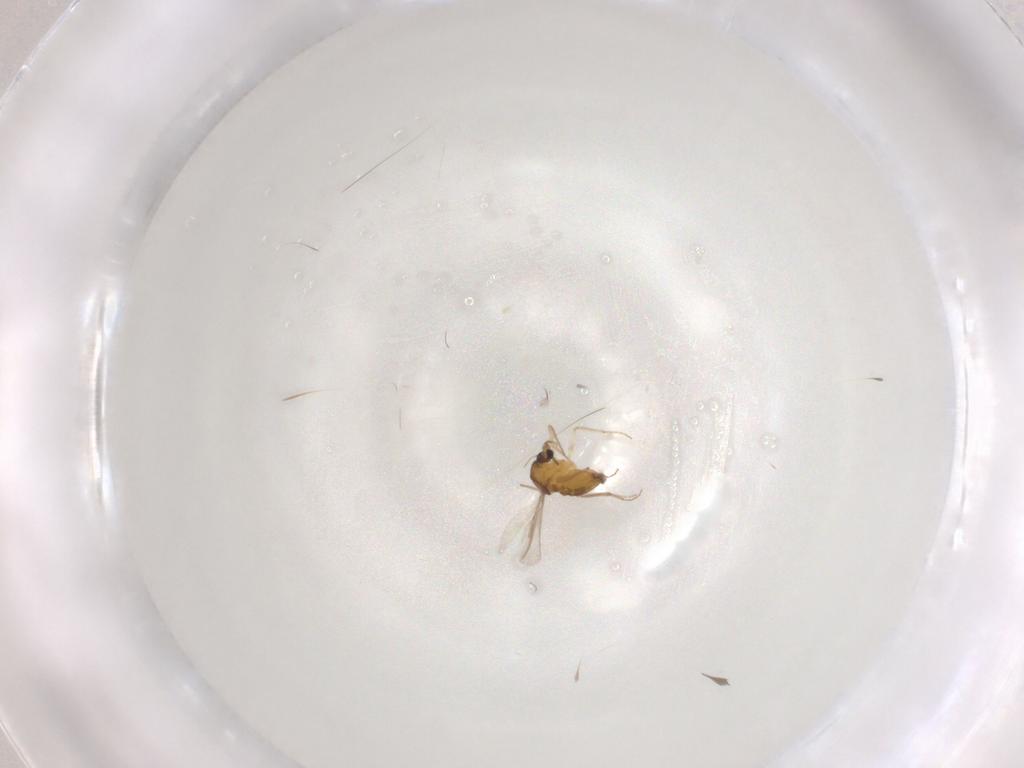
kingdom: Animalia
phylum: Arthropoda
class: Insecta
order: Diptera
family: Chironomidae
